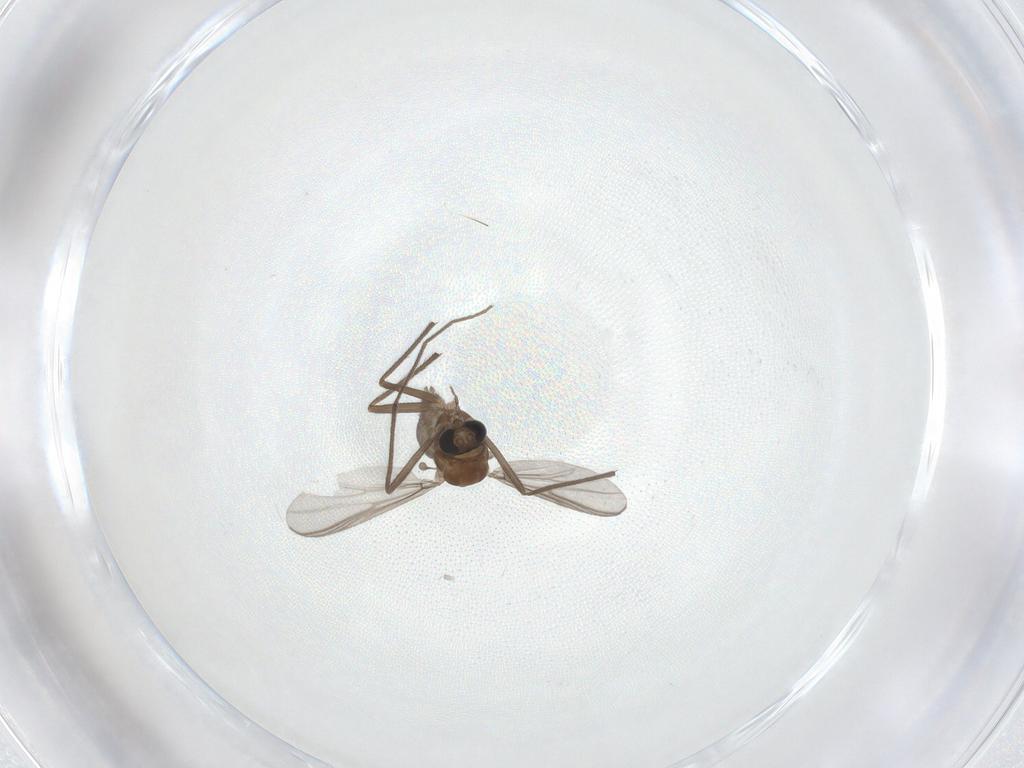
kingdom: Animalia
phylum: Arthropoda
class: Insecta
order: Diptera
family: Chironomidae
